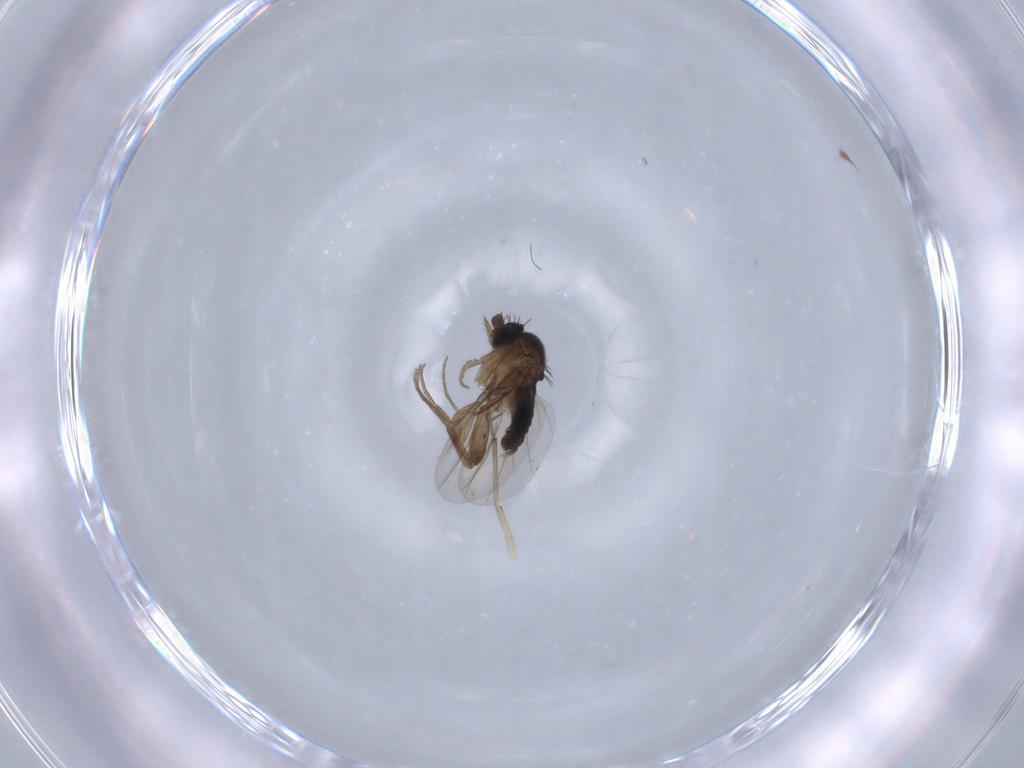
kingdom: Animalia
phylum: Arthropoda
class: Insecta
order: Diptera
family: Phoridae
